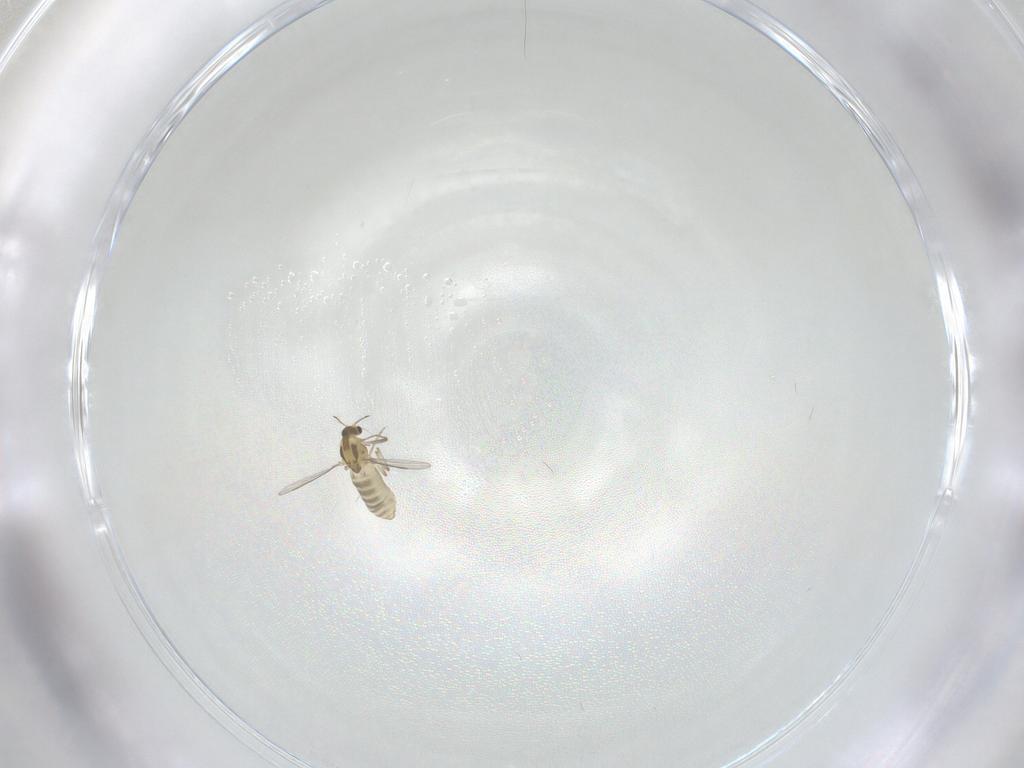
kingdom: Animalia
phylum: Arthropoda
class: Insecta
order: Diptera
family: Chironomidae
